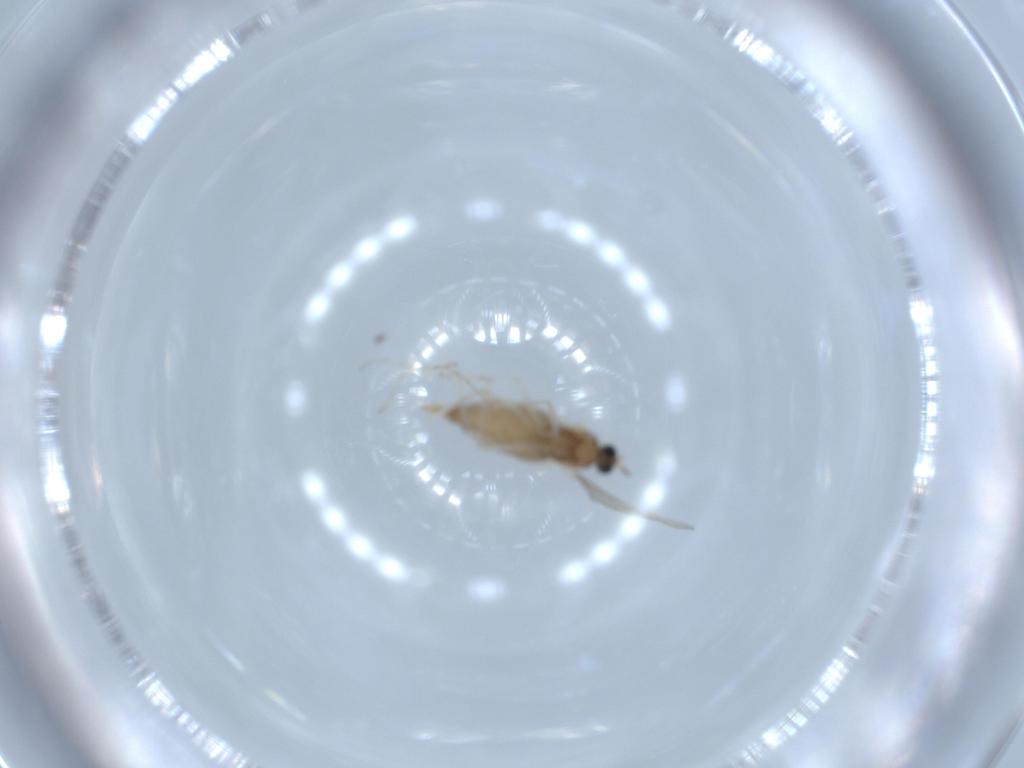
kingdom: Animalia
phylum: Arthropoda
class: Insecta
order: Diptera
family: Cecidomyiidae
